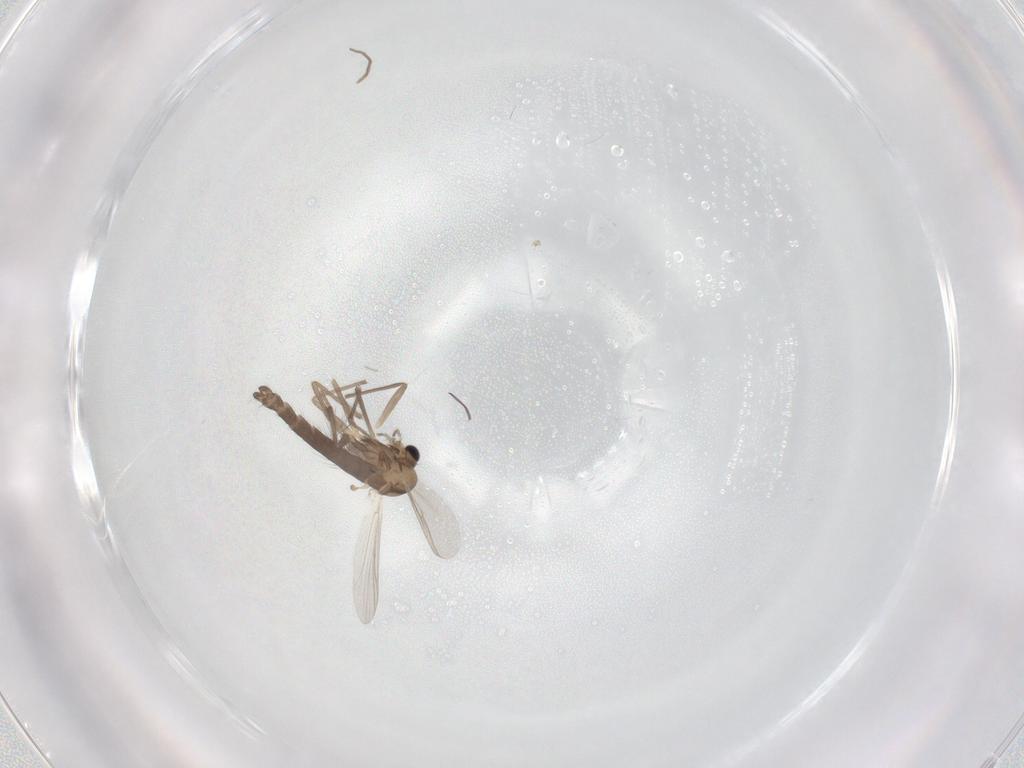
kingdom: Animalia
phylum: Arthropoda
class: Insecta
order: Diptera
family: Chironomidae
